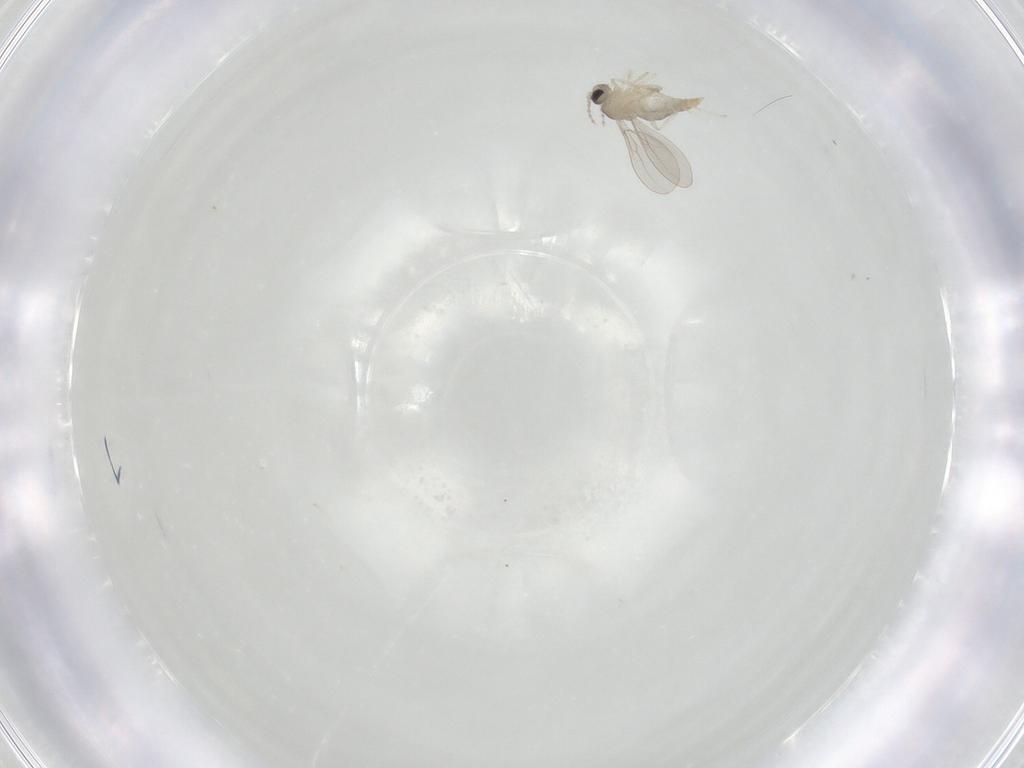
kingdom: Animalia
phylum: Arthropoda
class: Insecta
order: Diptera
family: Cecidomyiidae
